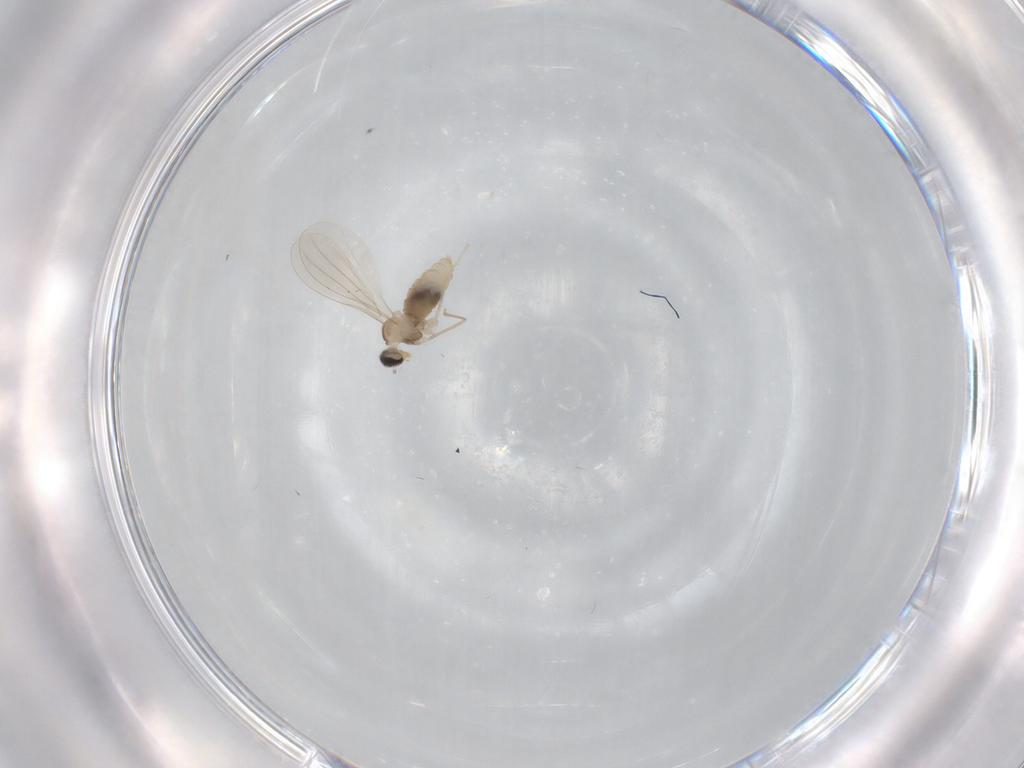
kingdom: Animalia
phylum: Arthropoda
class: Insecta
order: Diptera
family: Cecidomyiidae
